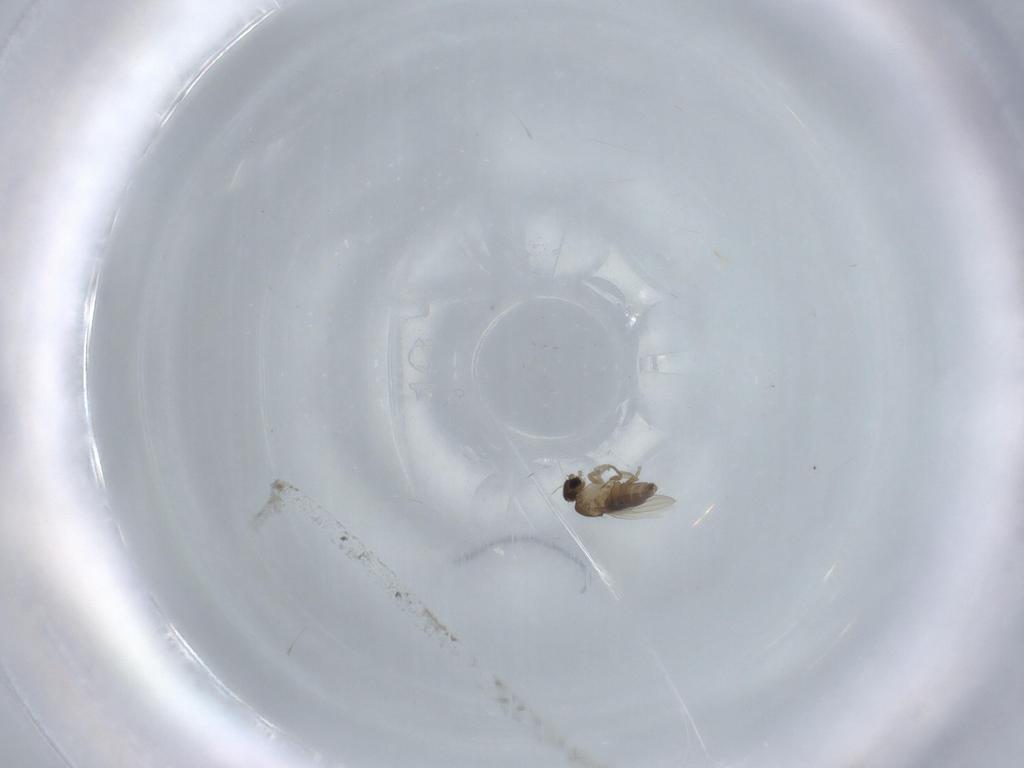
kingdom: Animalia
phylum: Arthropoda
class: Insecta
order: Diptera
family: Phoridae
